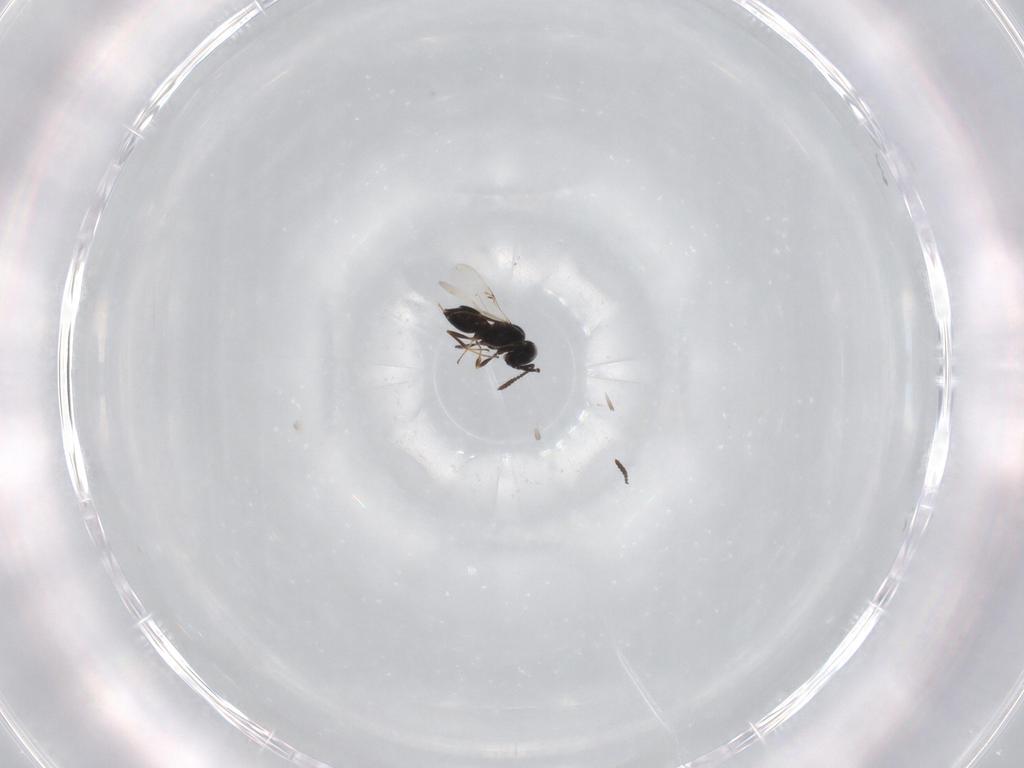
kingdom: Animalia
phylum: Arthropoda
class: Insecta
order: Hymenoptera
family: Scelionidae
